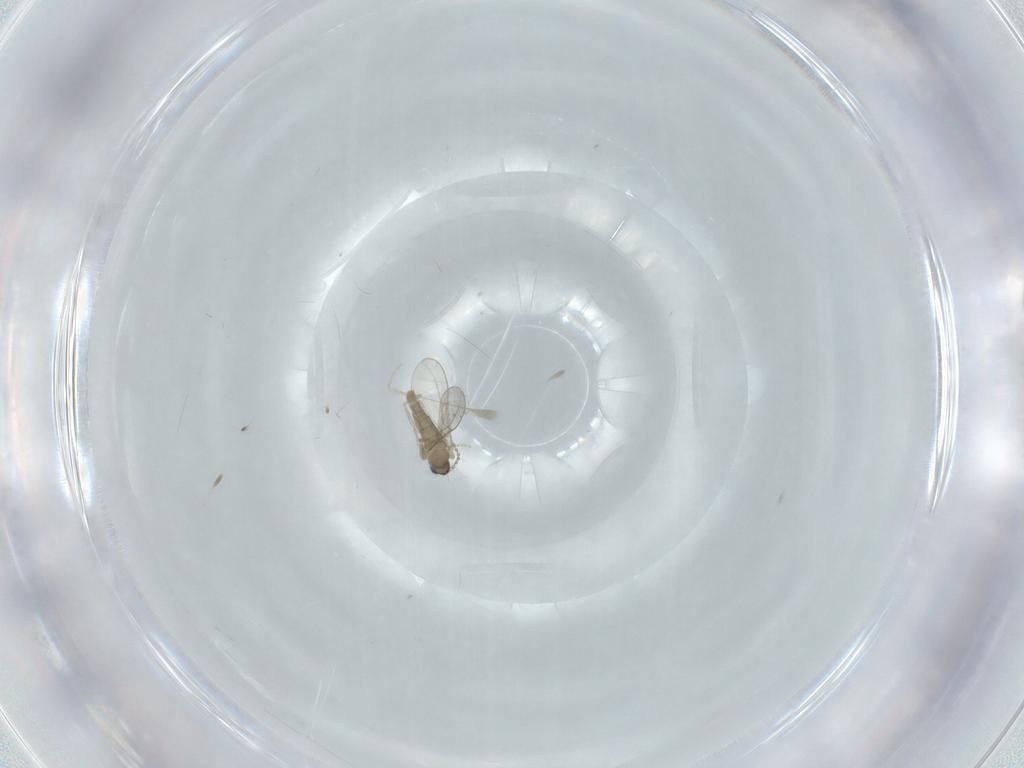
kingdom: Animalia
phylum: Arthropoda
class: Insecta
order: Diptera
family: Cecidomyiidae
